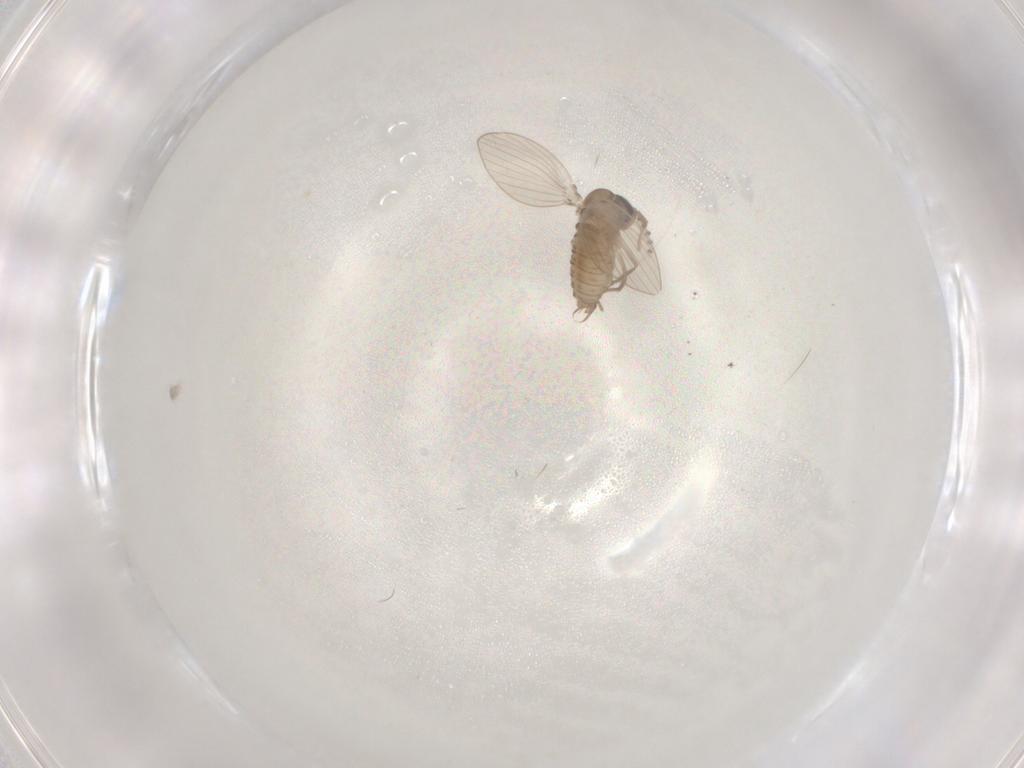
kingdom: Animalia
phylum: Arthropoda
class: Insecta
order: Diptera
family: Psychodidae
